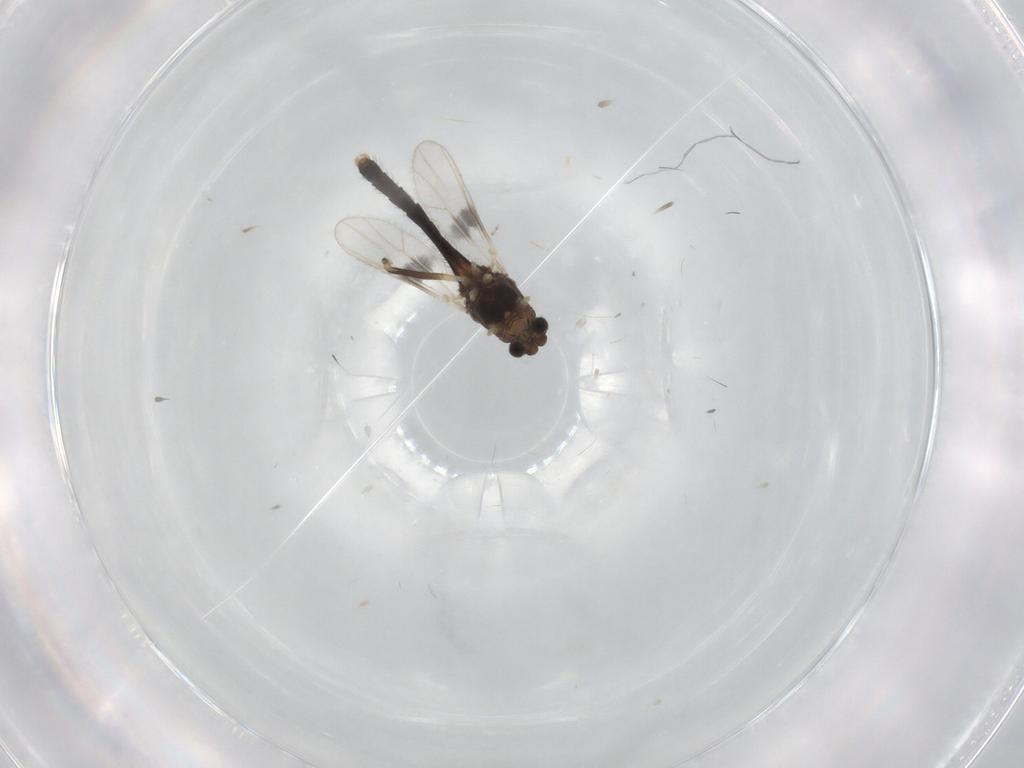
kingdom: Animalia
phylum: Arthropoda
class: Insecta
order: Diptera
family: Chironomidae
